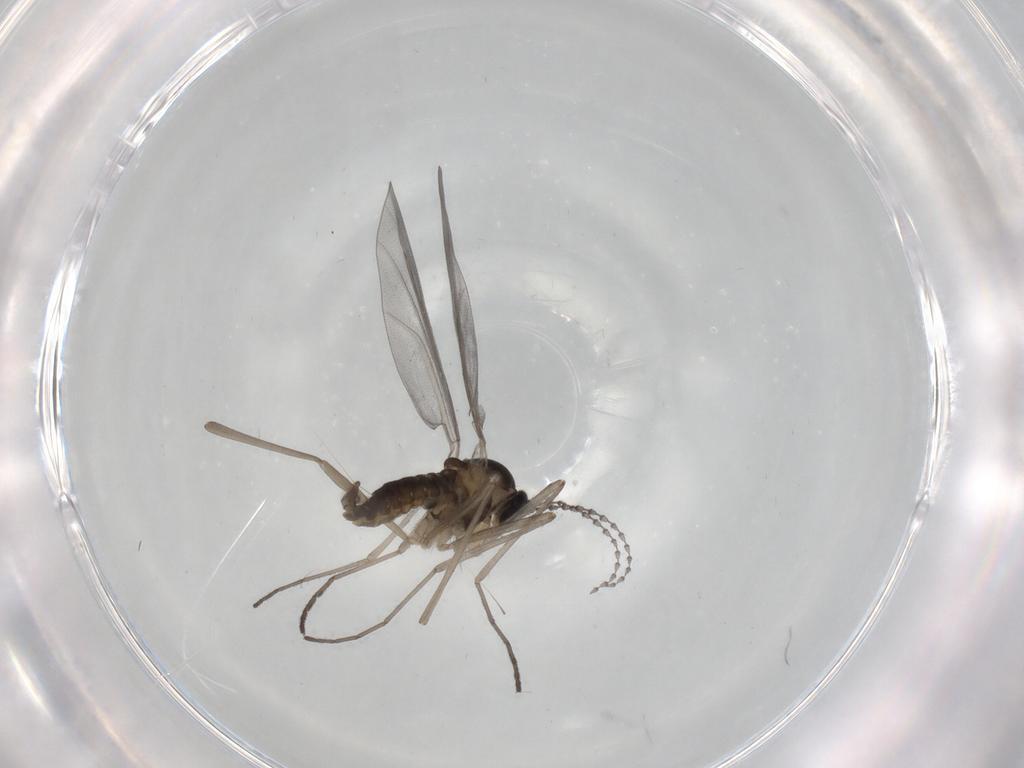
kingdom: Animalia
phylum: Arthropoda
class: Insecta
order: Diptera
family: Cecidomyiidae
